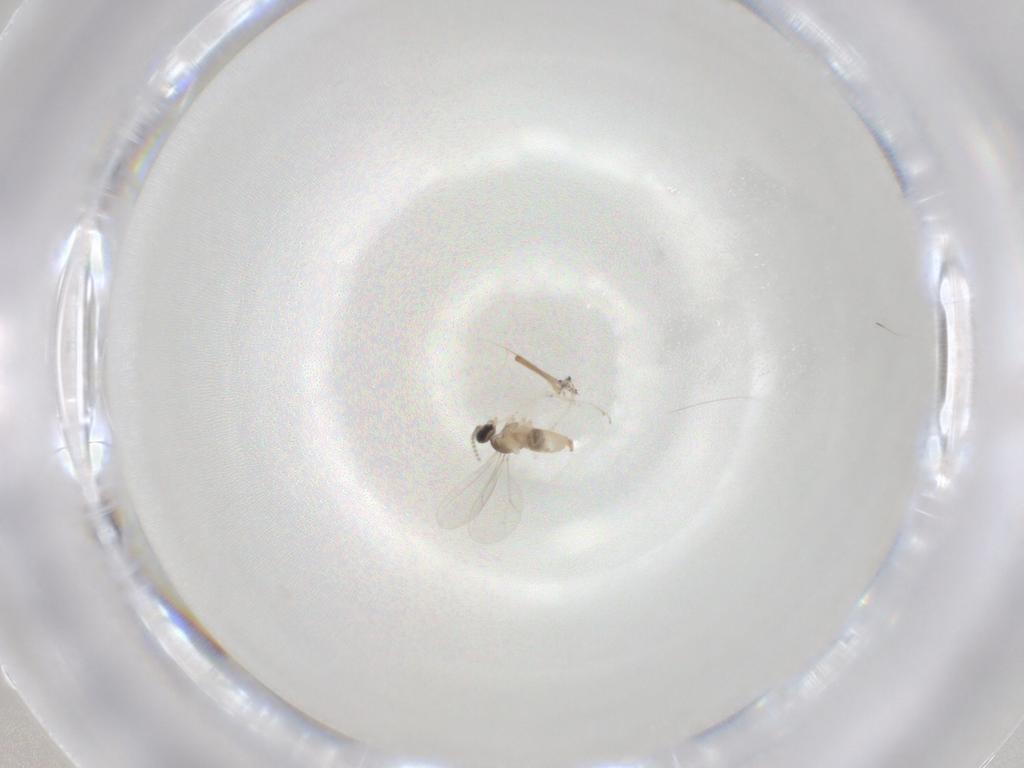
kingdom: Animalia
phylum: Arthropoda
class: Insecta
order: Diptera
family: Cecidomyiidae
